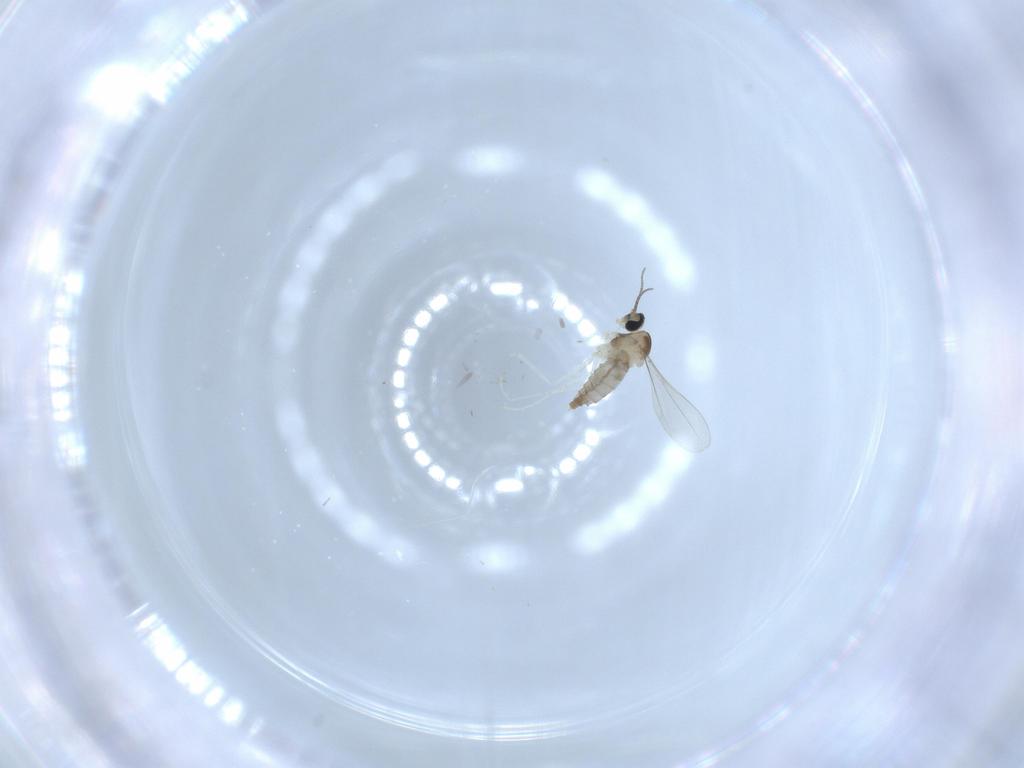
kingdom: Animalia
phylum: Arthropoda
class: Insecta
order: Diptera
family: Cecidomyiidae
